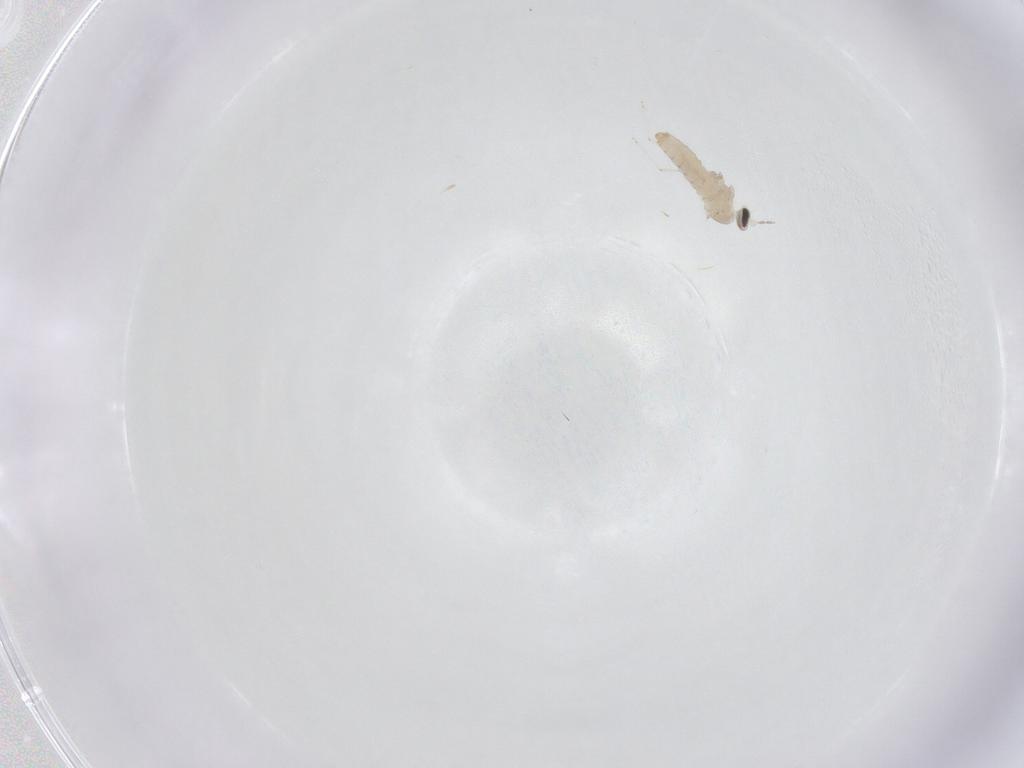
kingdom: Animalia
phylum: Arthropoda
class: Insecta
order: Diptera
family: Cecidomyiidae
